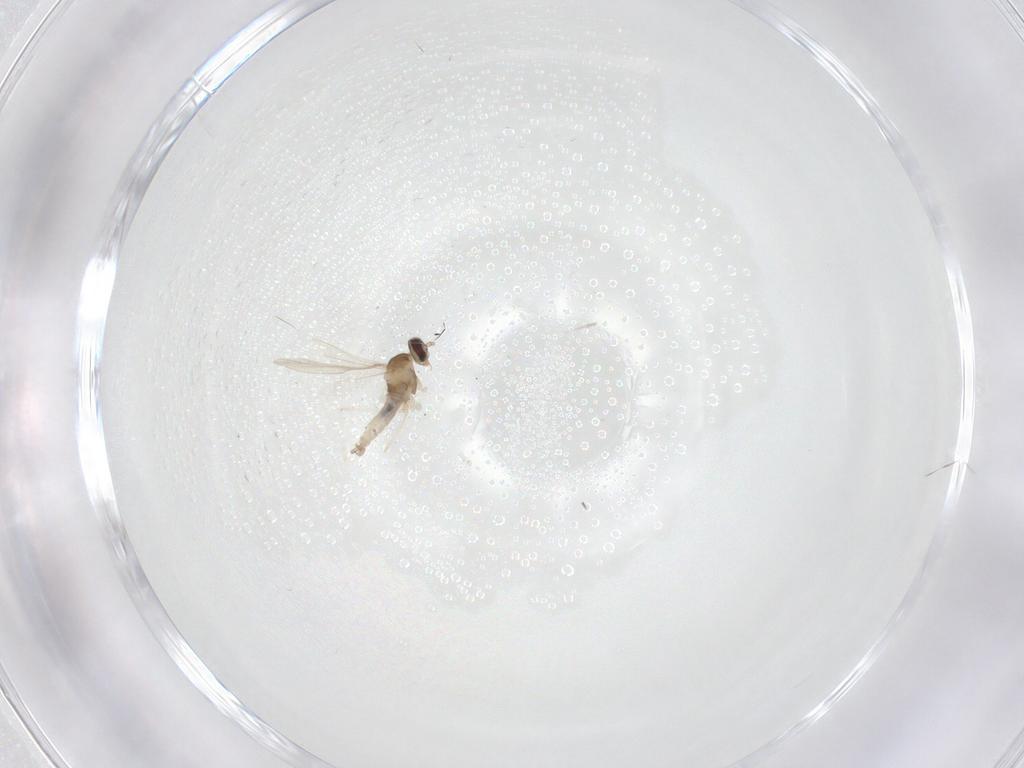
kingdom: Animalia
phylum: Arthropoda
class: Insecta
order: Diptera
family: Cecidomyiidae
